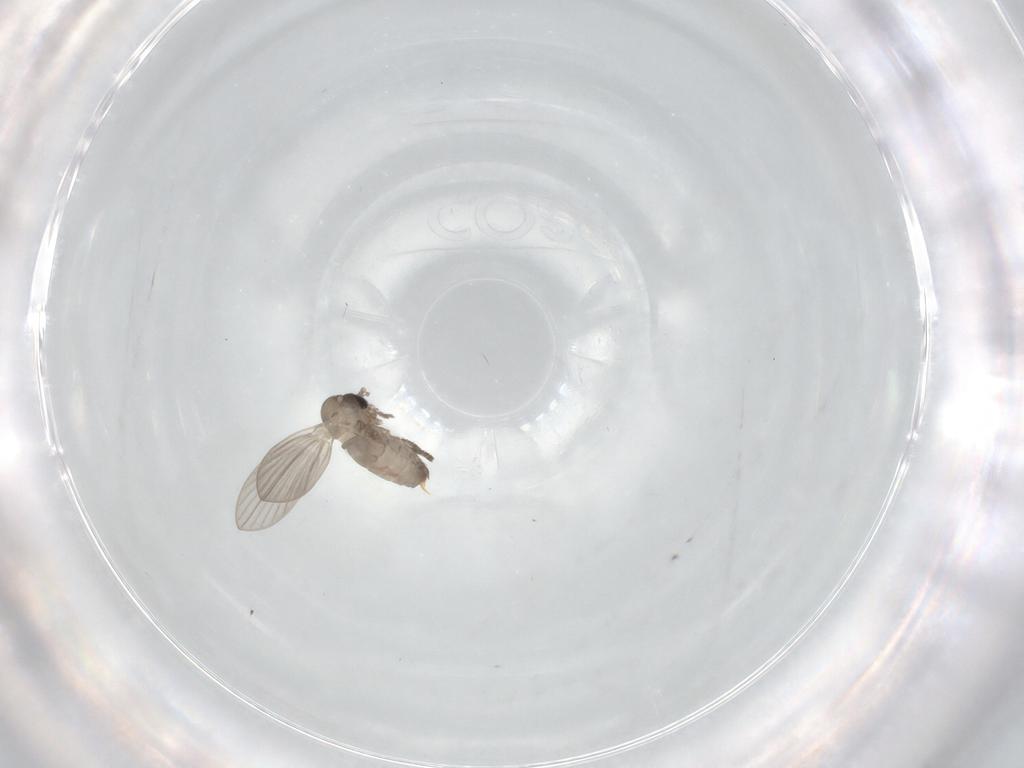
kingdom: Animalia
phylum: Arthropoda
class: Insecta
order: Diptera
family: Psychodidae
